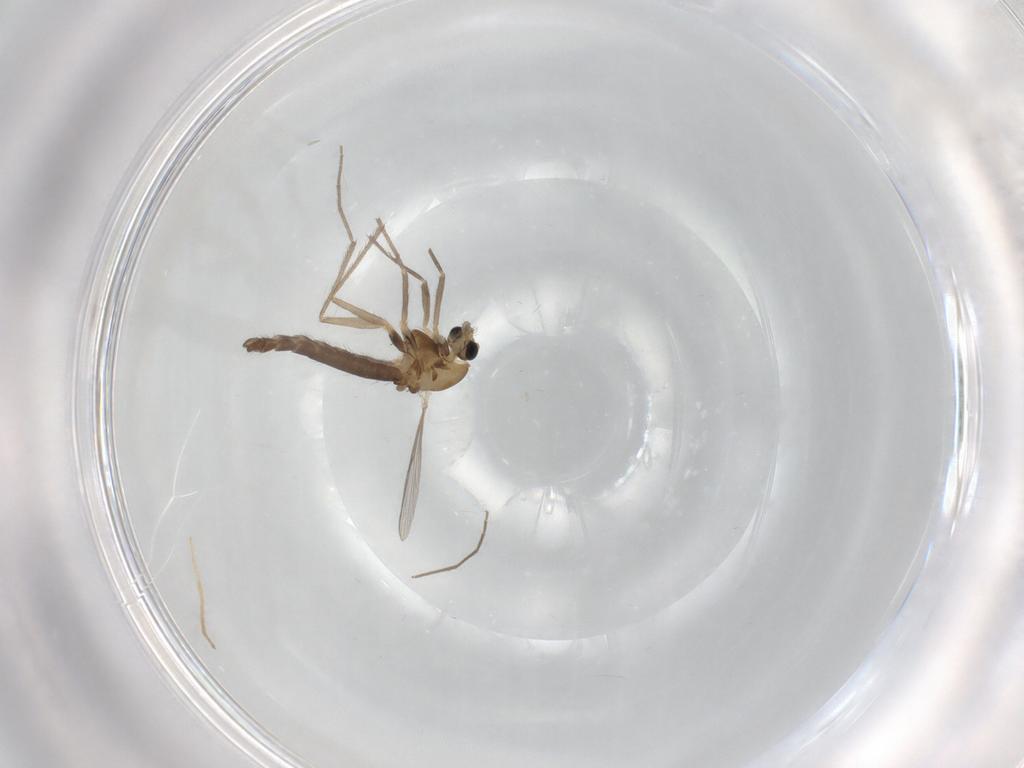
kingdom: Animalia
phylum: Arthropoda
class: Insecta
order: Diptera
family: Chironomidae
